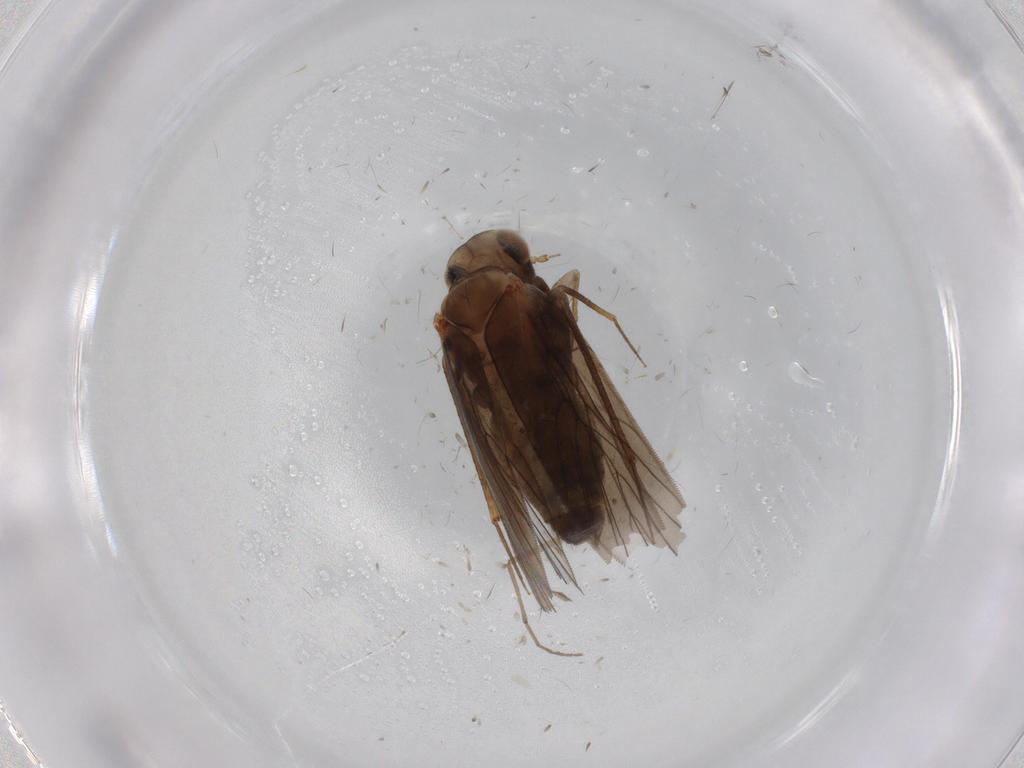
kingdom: Animalia
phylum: Arthropoda
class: Insecta
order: Psocodea
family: Lepidopsocidae
